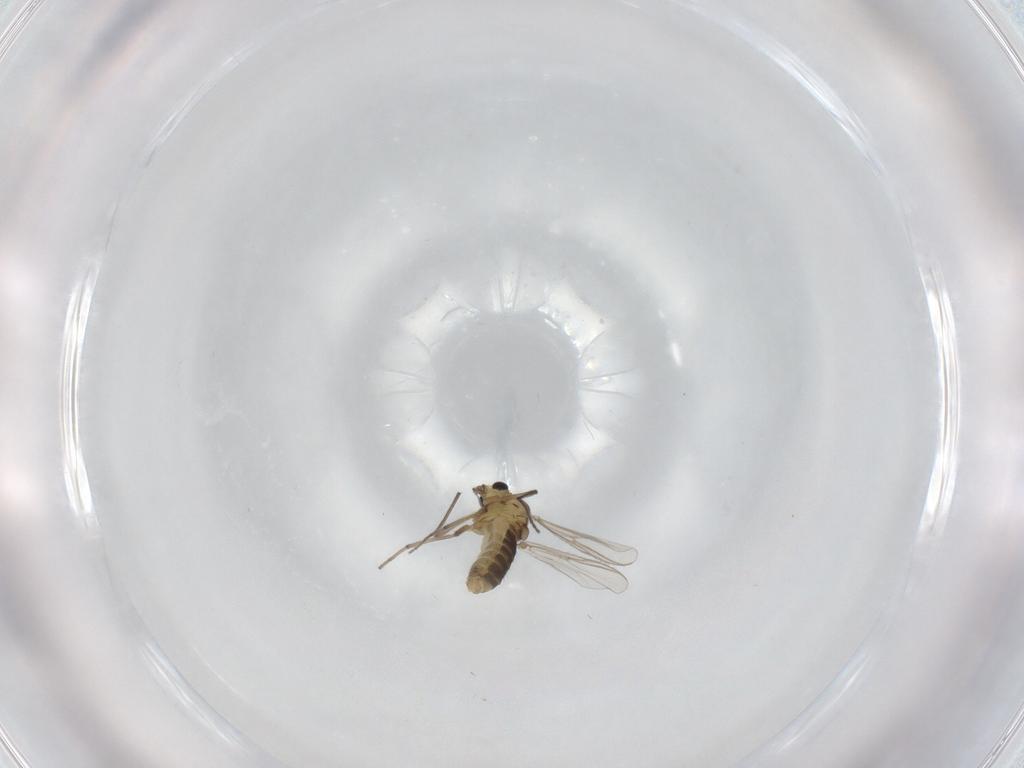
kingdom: Animalia
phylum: Arthropoda
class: Insecta
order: Diptera
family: Chironomidae
